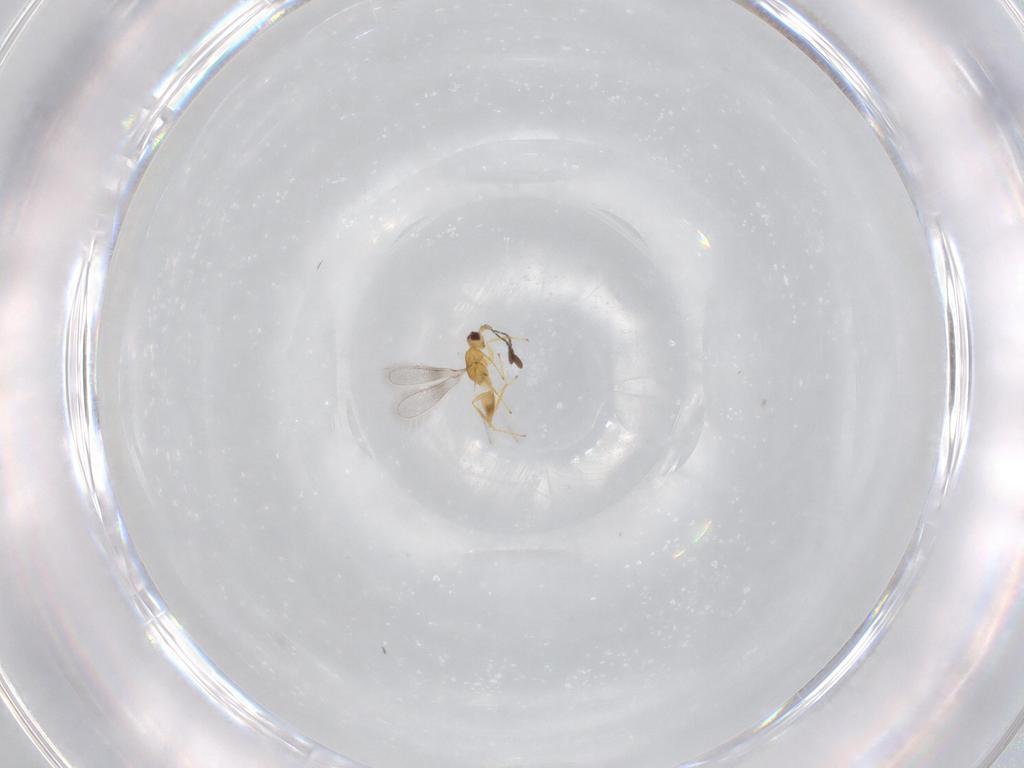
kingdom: Animalia
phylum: Arthropoda
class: Insecta
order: Hymenoptera
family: Mymaridae
